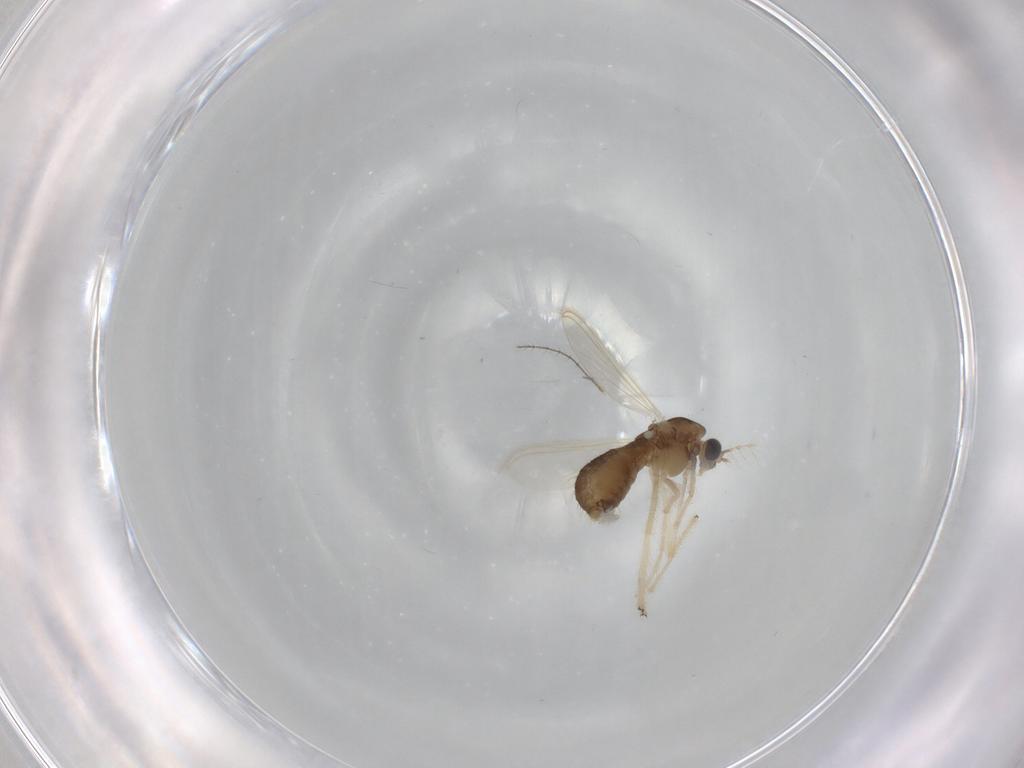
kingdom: Animalia
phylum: Arthropoda
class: Insecta
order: Diptera
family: Chironomidae
